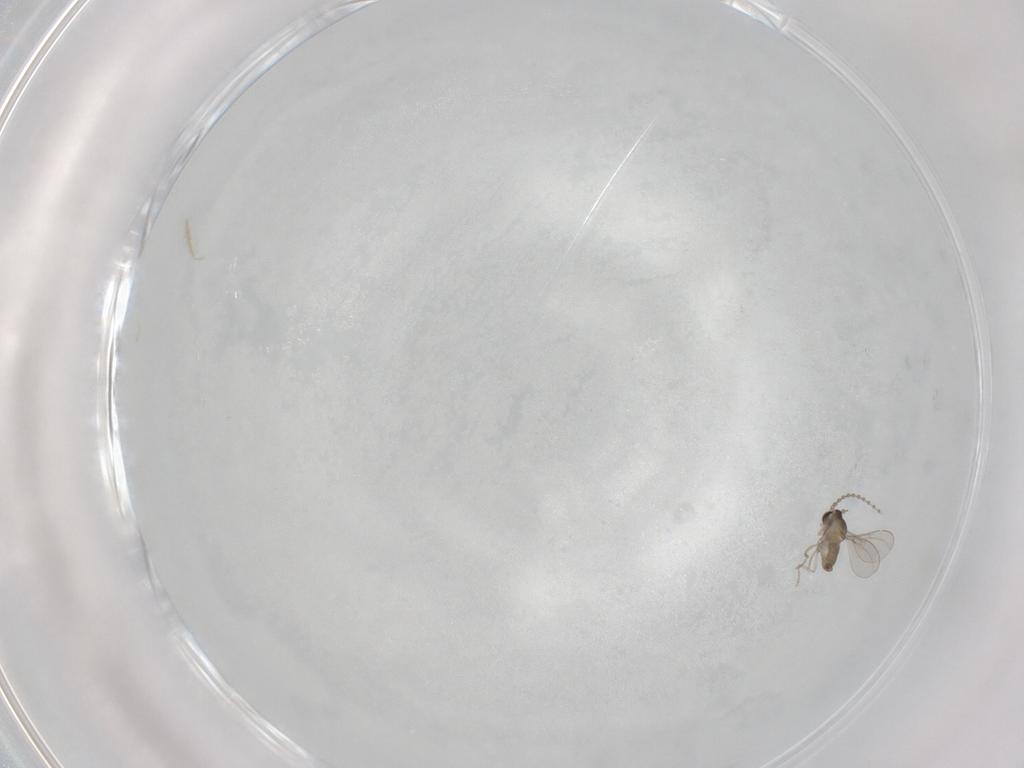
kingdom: Animalia
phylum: Arthropoda
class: Insecta
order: Diptera
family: Cecidomyiidae
